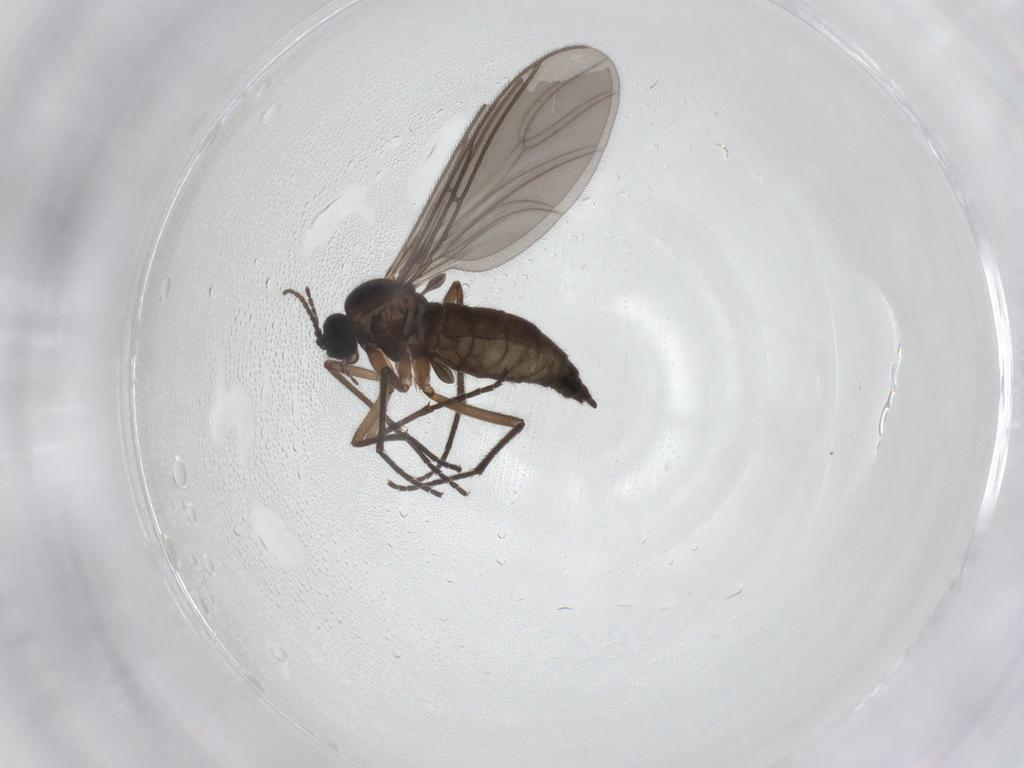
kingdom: Animalia
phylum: Arthropoda
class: Insecta
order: Diptera
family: Sciaridae
